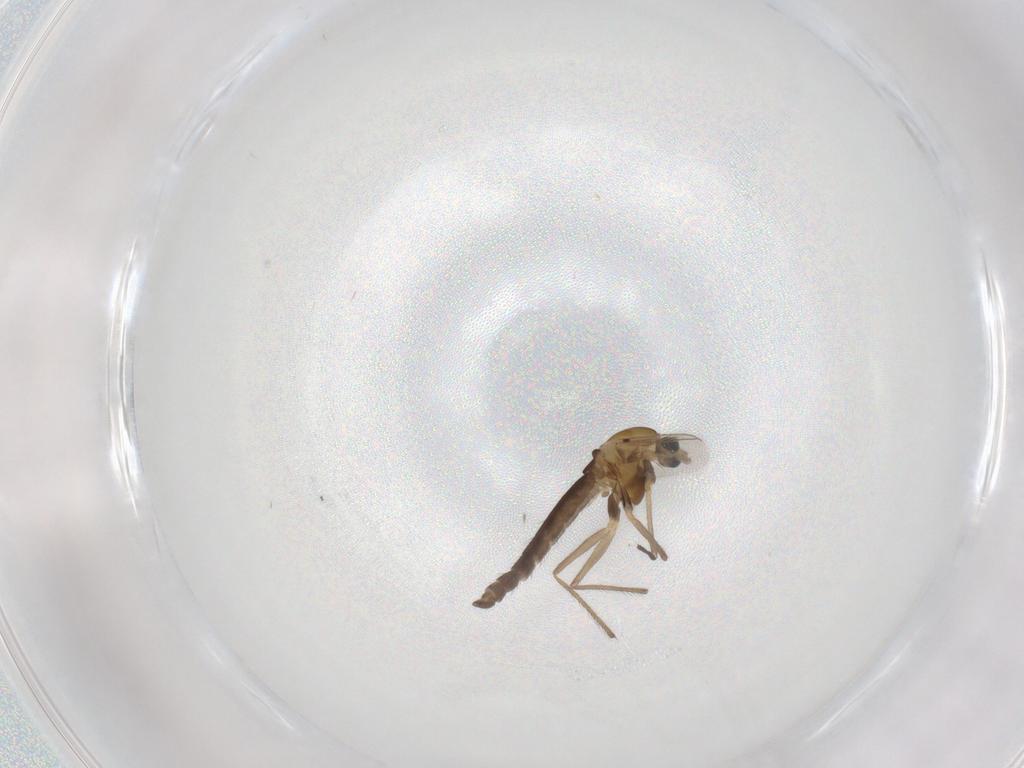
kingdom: Animalia
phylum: Arthropoda
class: Insecta
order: Diptera
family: Chironomidae
